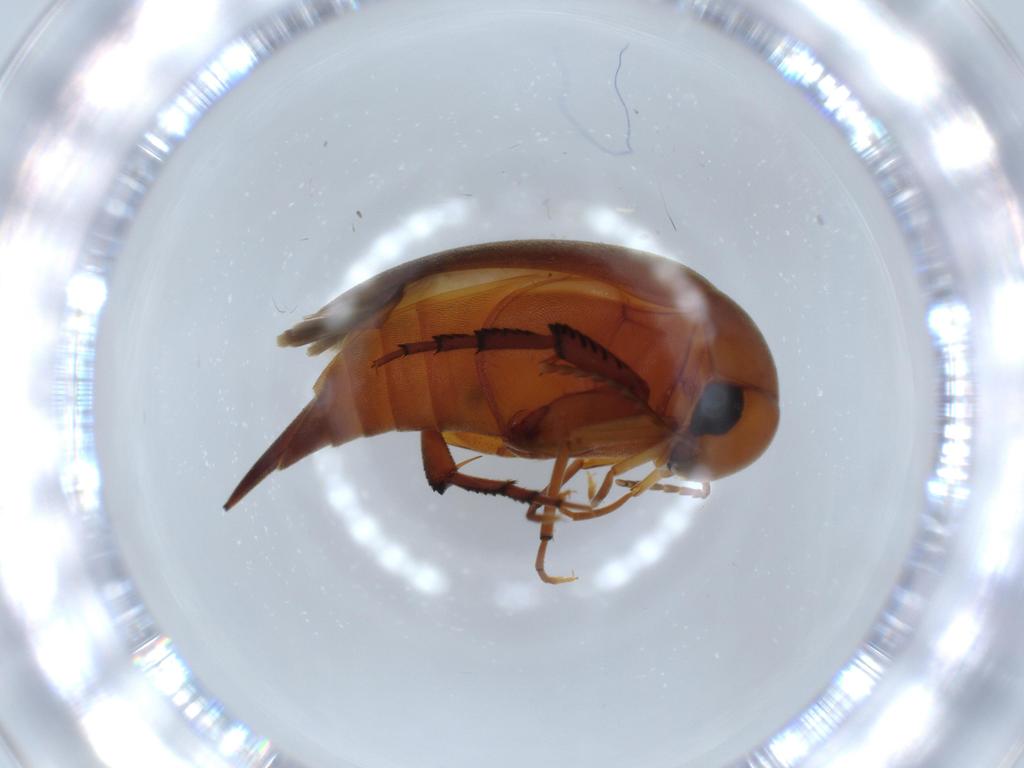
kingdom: Animalia
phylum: Arthropoda
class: Insecta
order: Coleoptera
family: Mordellidae
